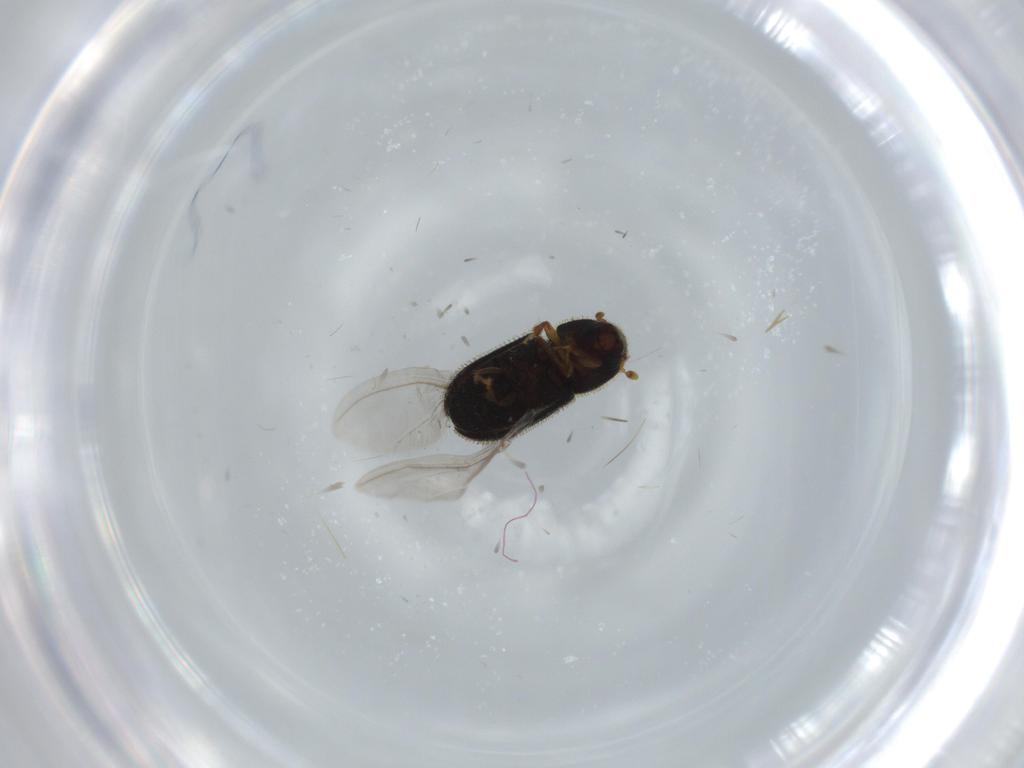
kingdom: Animalia
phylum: Arthropoda
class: Insecta
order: Coleoptera
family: Curculionidae
